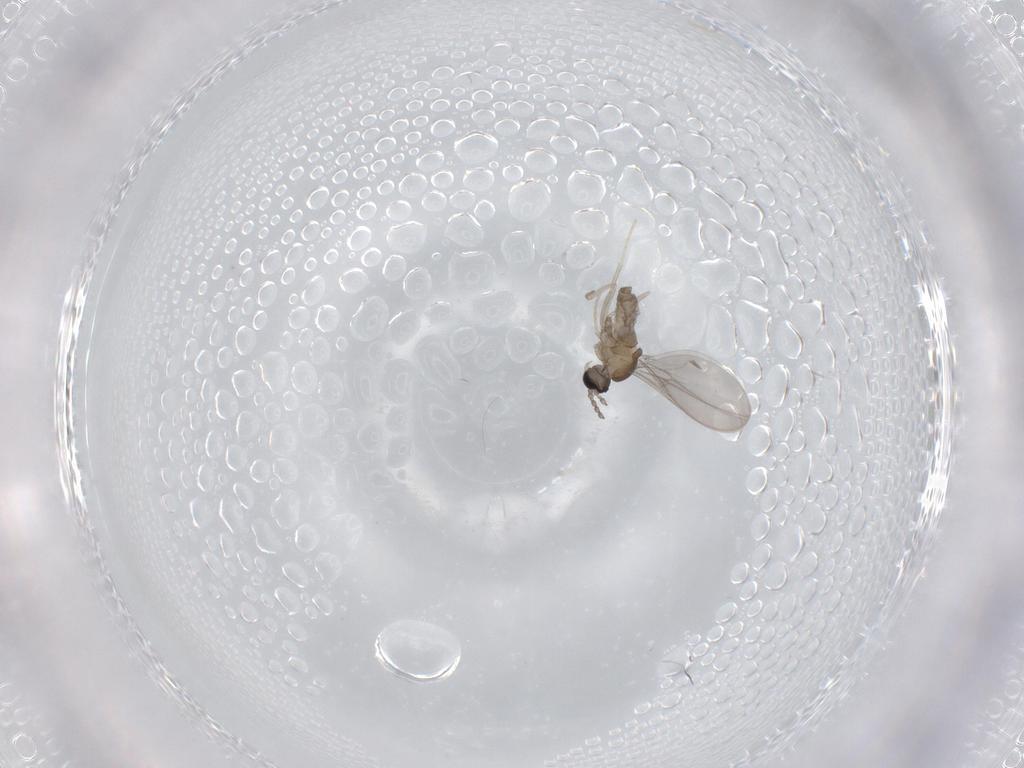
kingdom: Animalia
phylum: Arthropoda
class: Insecta
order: Diptera
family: Cecidomyiidae
